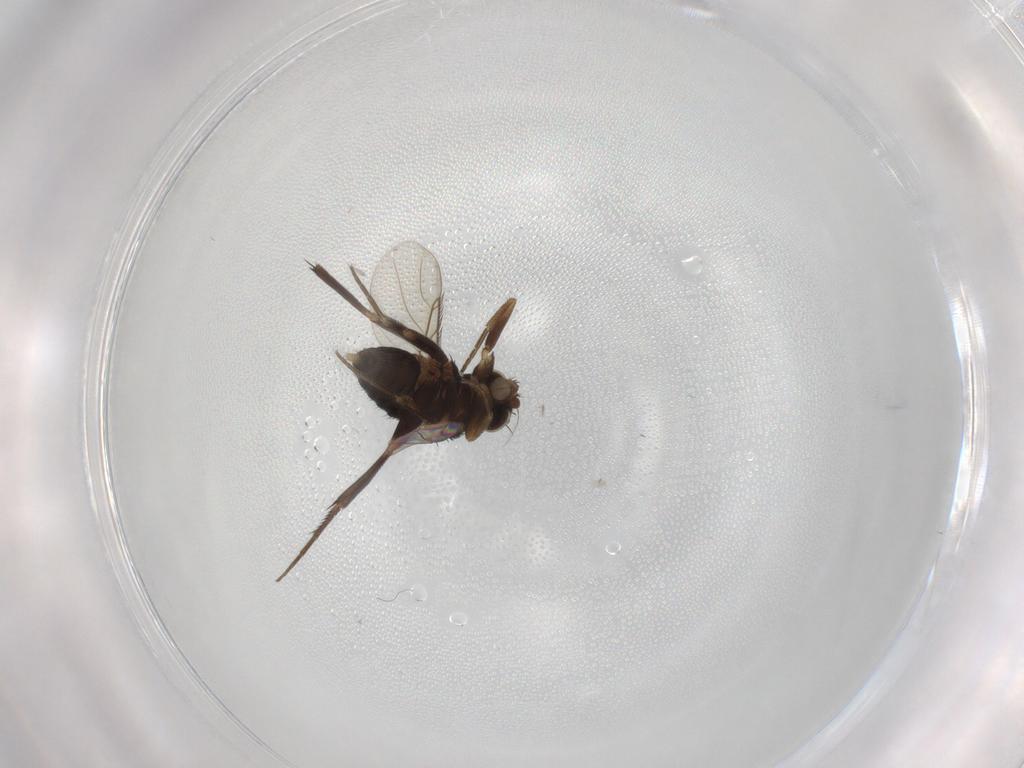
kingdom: Animalia
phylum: Arthropoda
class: Insecta
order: Diptera
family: Phoridae
